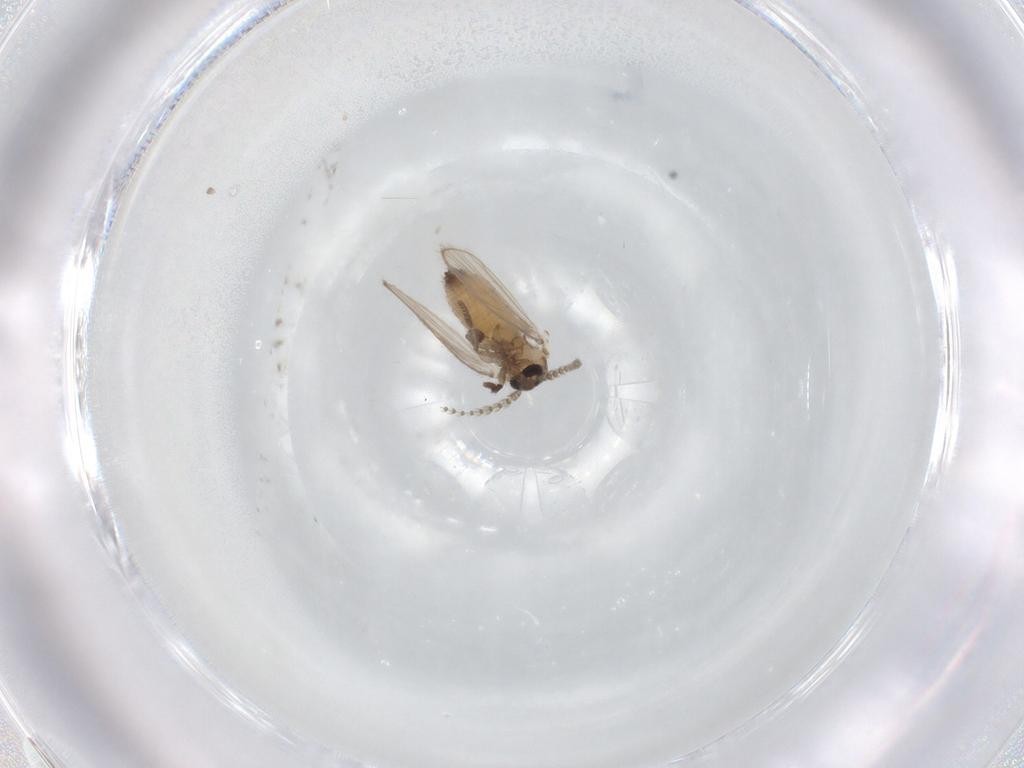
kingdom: Animalia
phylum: Arthropoda
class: Insecta
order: Diptera
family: Psychodidae
